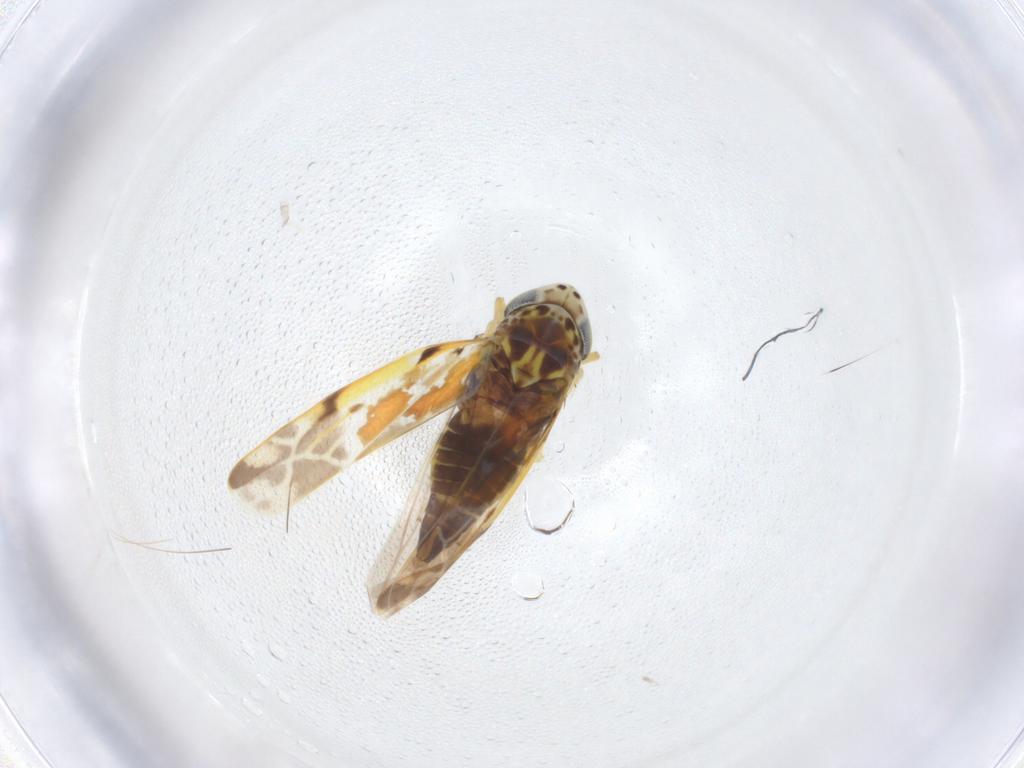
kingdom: Animalia
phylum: Arthropoda
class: Insecta
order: Hemiptera
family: Cicadellidae
